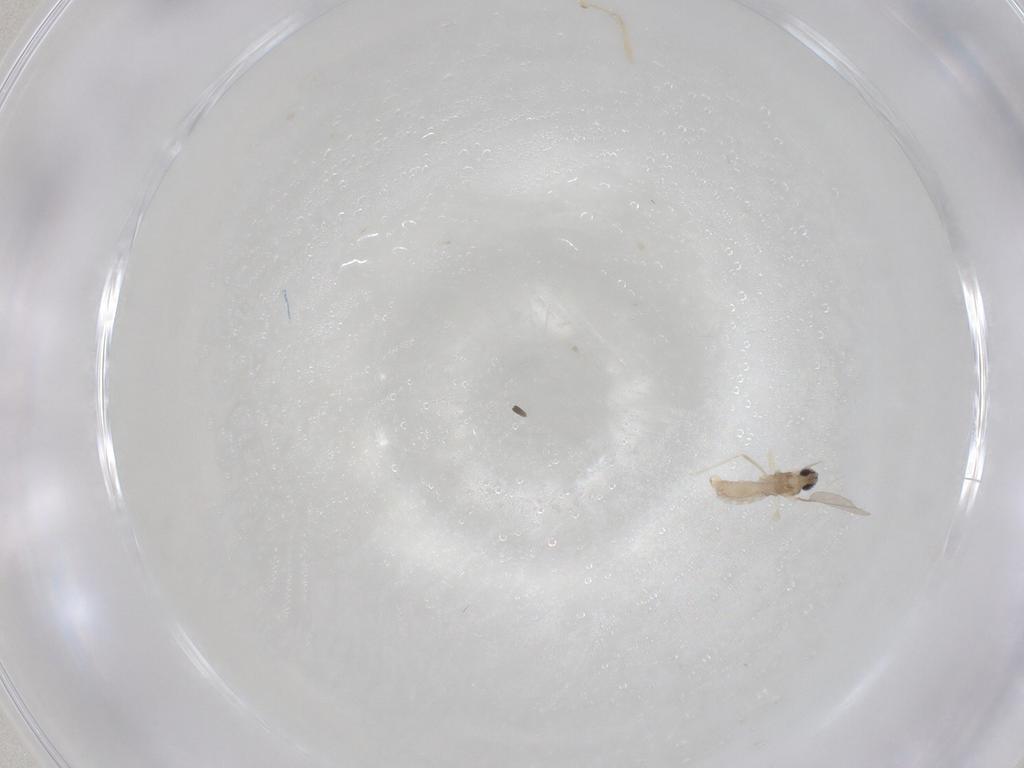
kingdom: Animalia
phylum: Arthropoda
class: Insecta
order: Diptera
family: Cecidomyiidae
